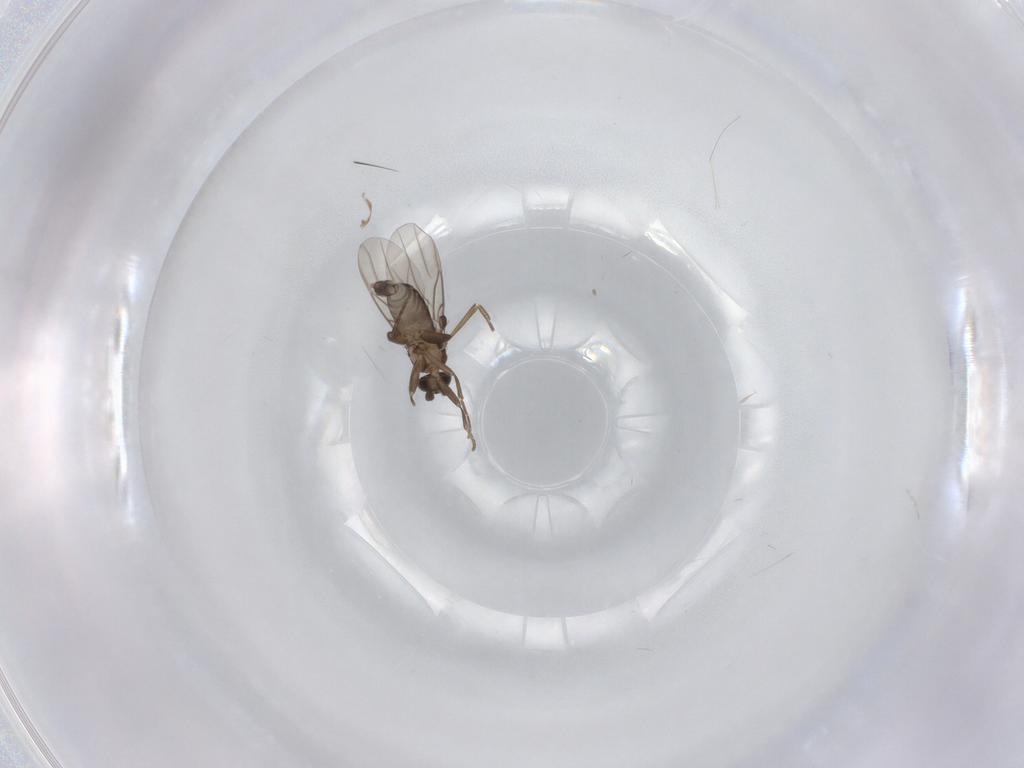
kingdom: Animalia
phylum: Arthropoda
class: Insecta
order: Diptera
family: Phoridae
